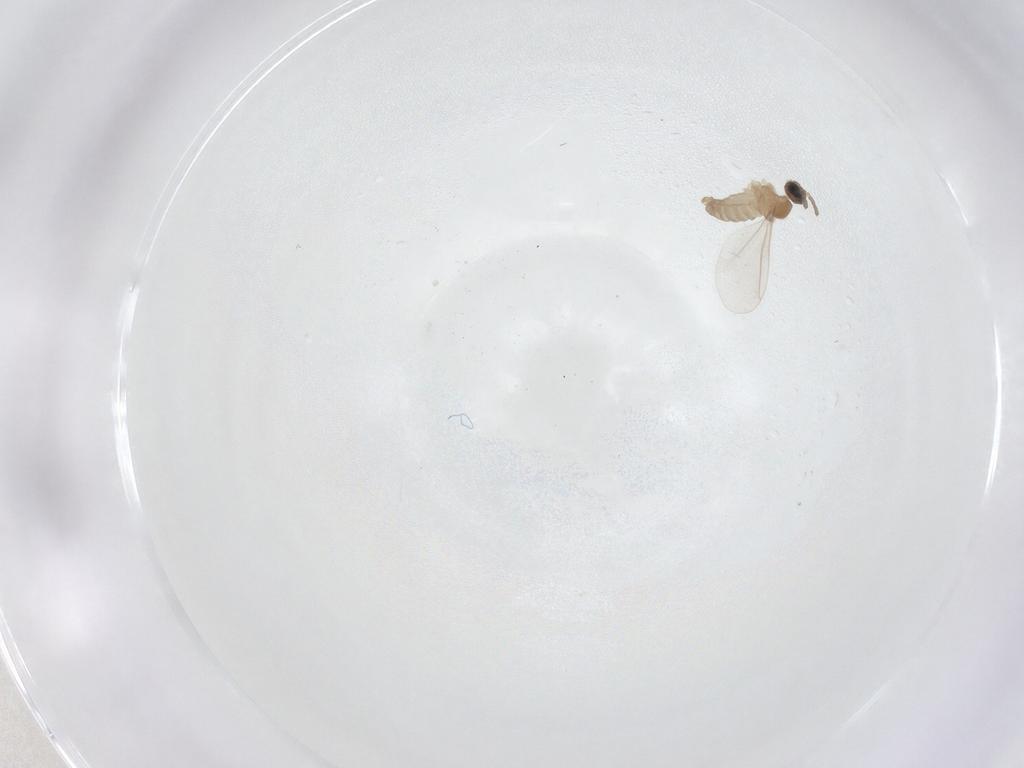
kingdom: Animalia
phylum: Arthropoda
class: Insecta
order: Diptera
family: Cecidomyiidae
